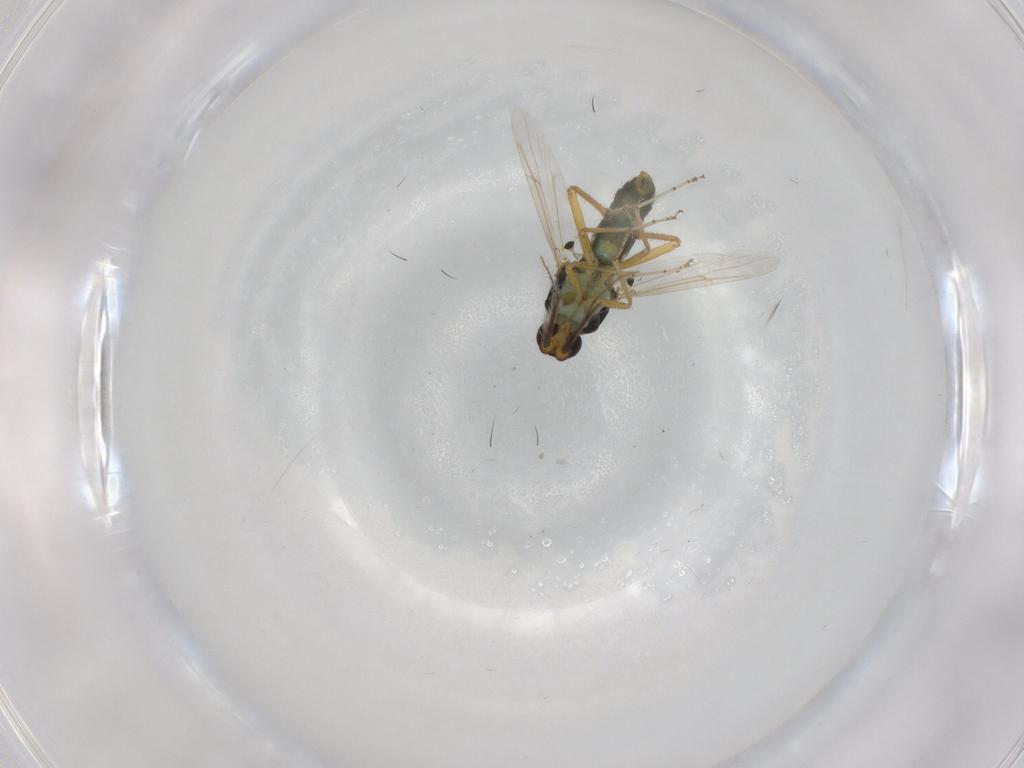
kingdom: Animalia
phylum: Arthropoda
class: Insecta
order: Diptera
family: Ceratopogonidae
